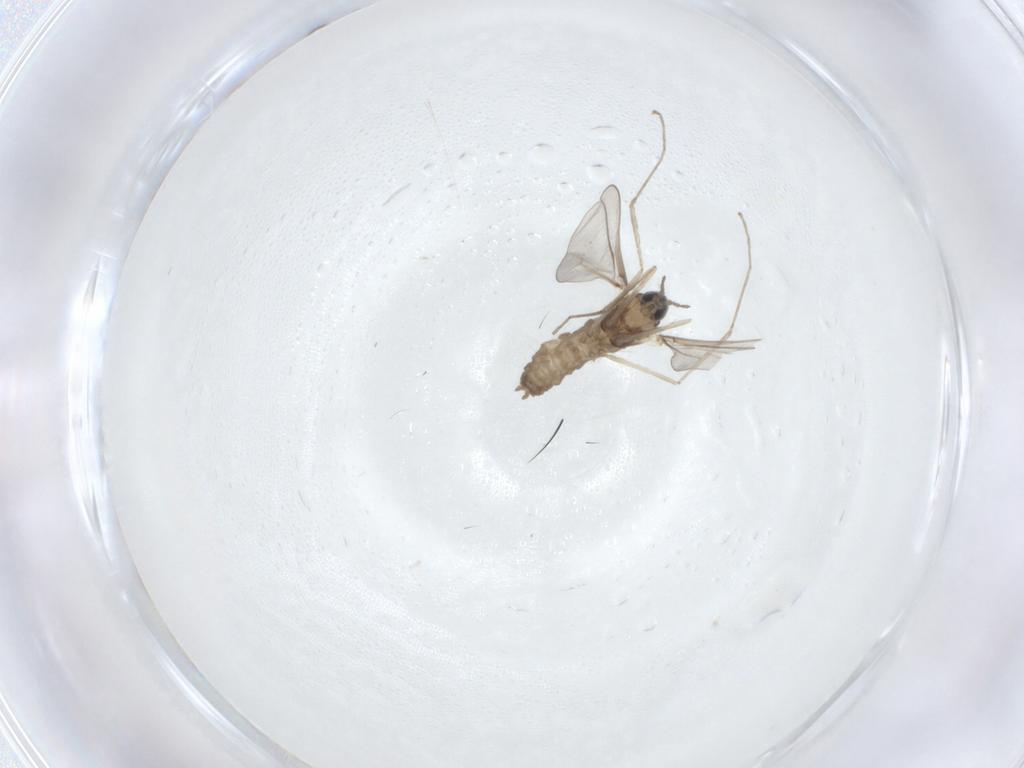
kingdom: Animalia
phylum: Arthropoda
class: Insecta
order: Diptera
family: Cecidomyiidae
